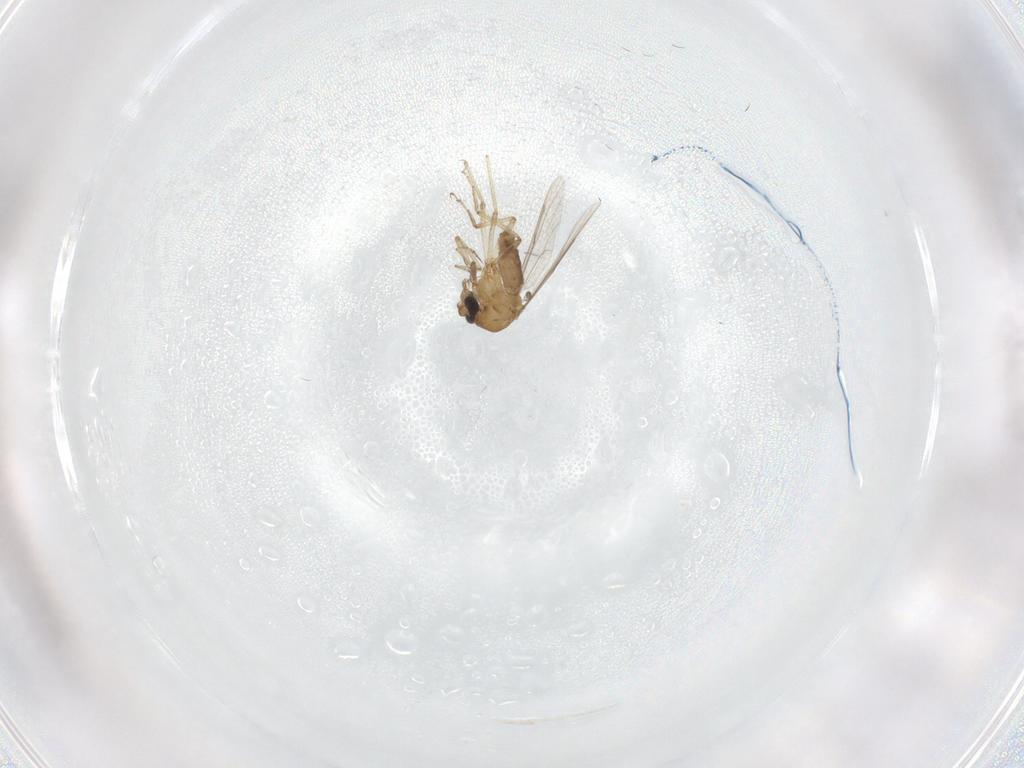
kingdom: Animalia
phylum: Arthropoda
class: Insecta
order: Diptera
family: Ceratopogonidae
